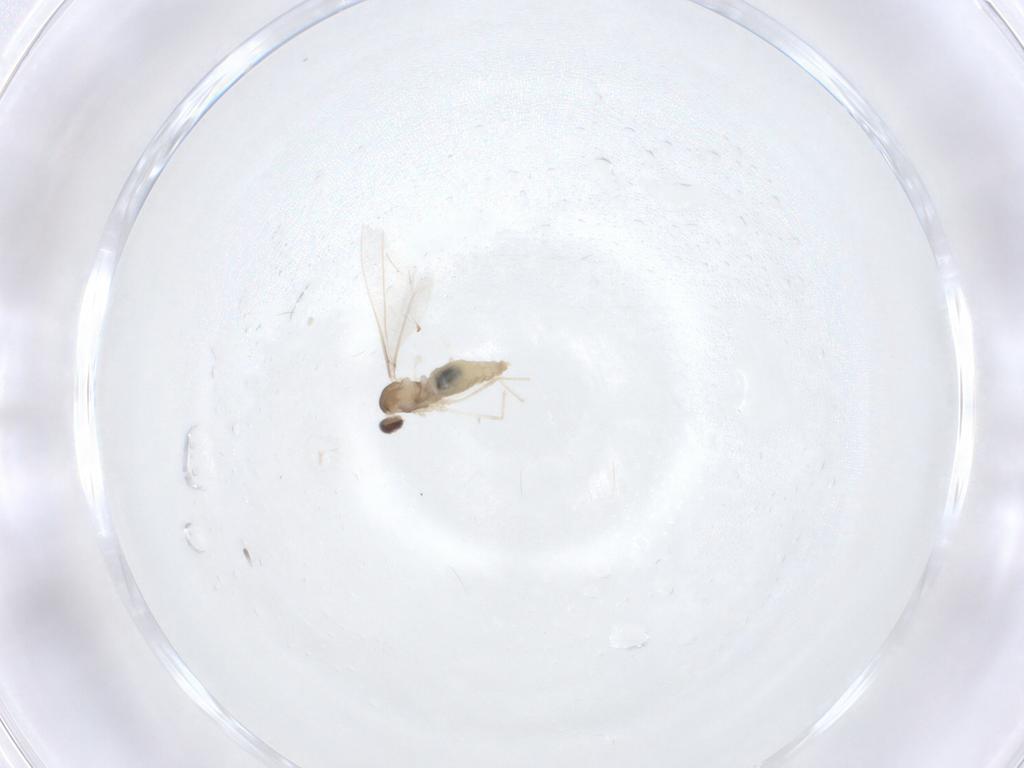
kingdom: Animalia
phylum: Arthropoda
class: Insecta
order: Diptera
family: Cecidomyiidae
